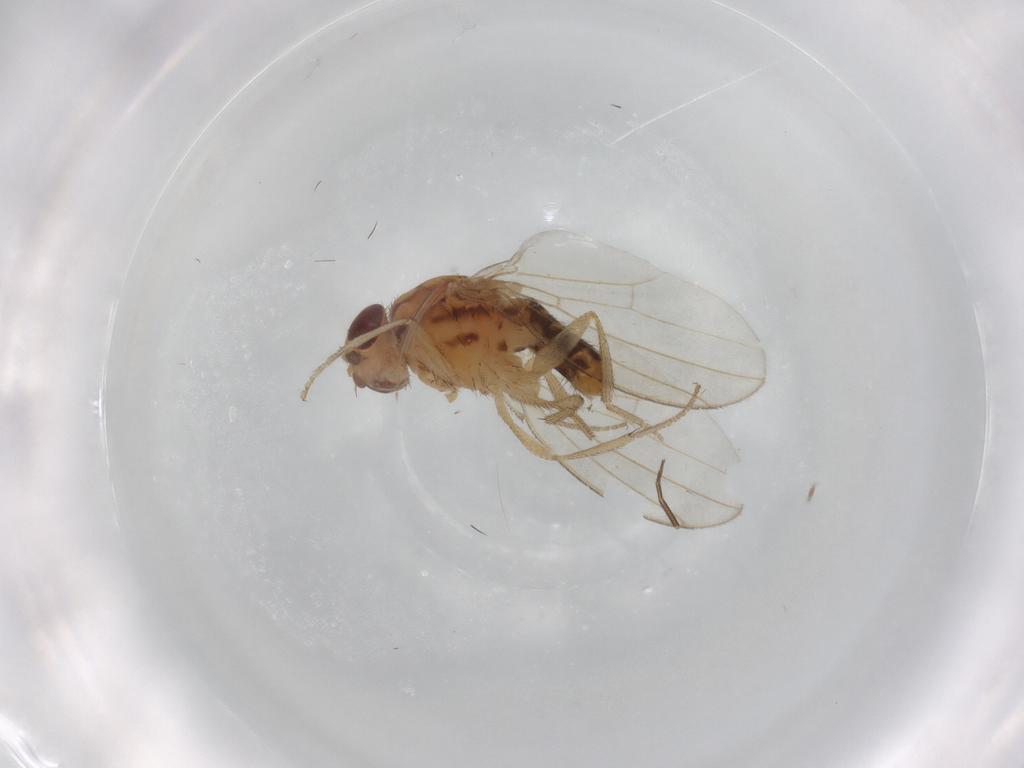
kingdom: Animalia
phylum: Arthropoda
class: Insecta
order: Diptera
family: Phoridae
